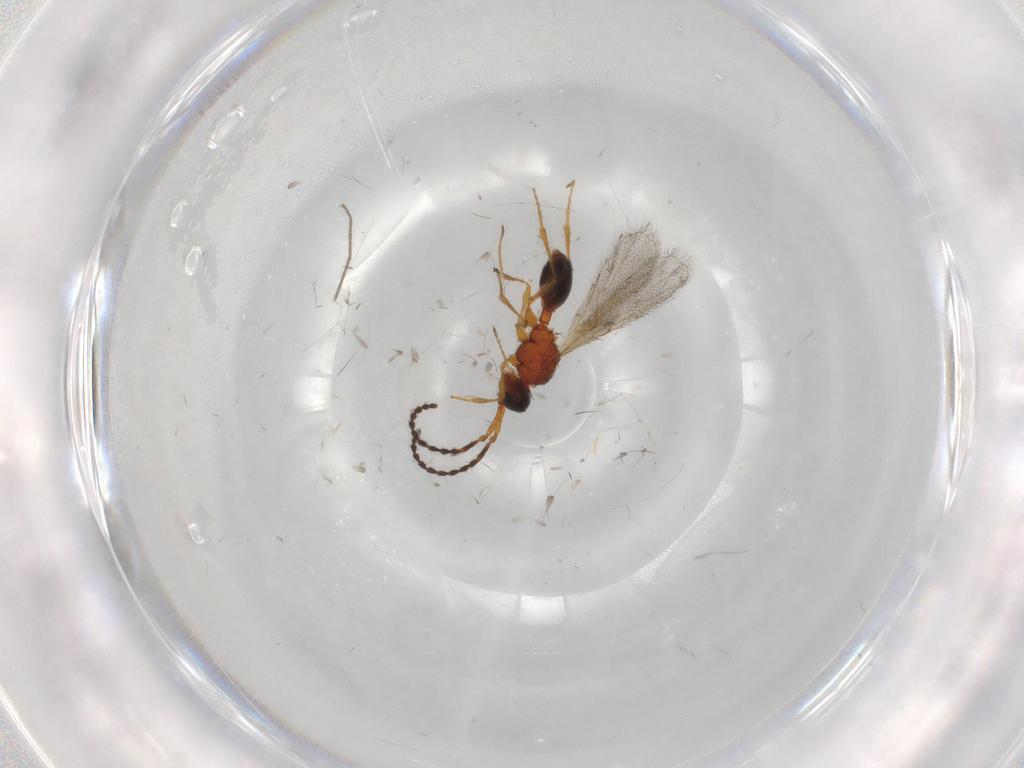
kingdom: Animalia
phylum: Arthropoda
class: Insecta
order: Hymenoptera
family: Diapriidae
